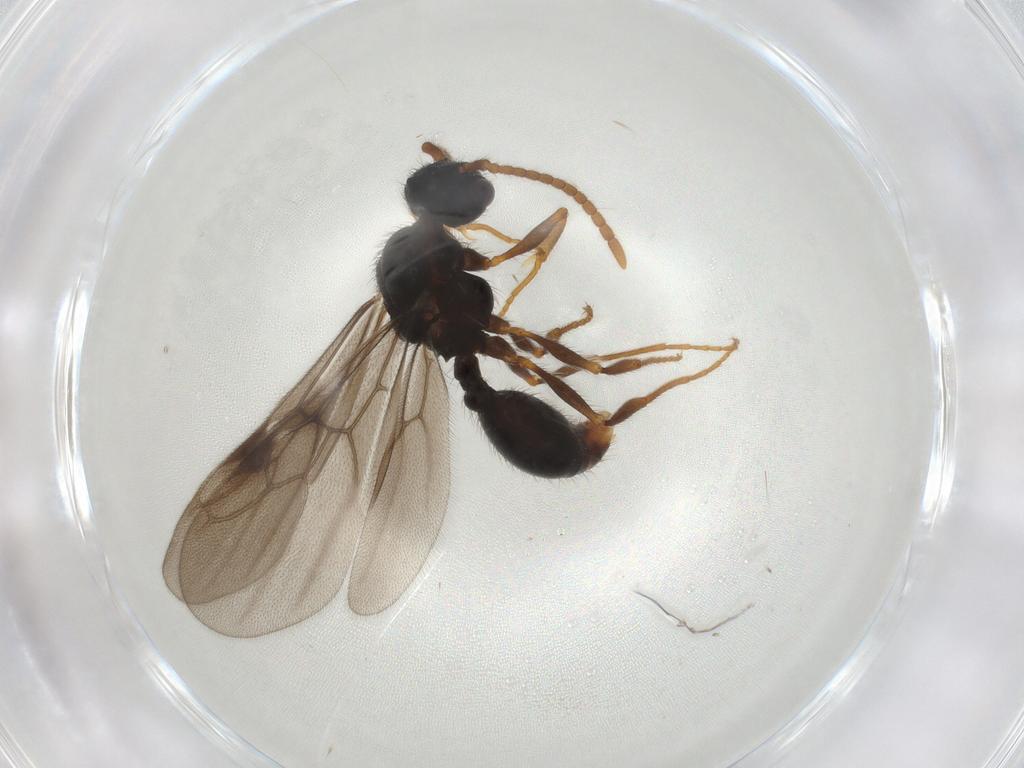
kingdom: Animalia
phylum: Arthropoda
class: Insecta
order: Hymenoptera
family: Formicidae
